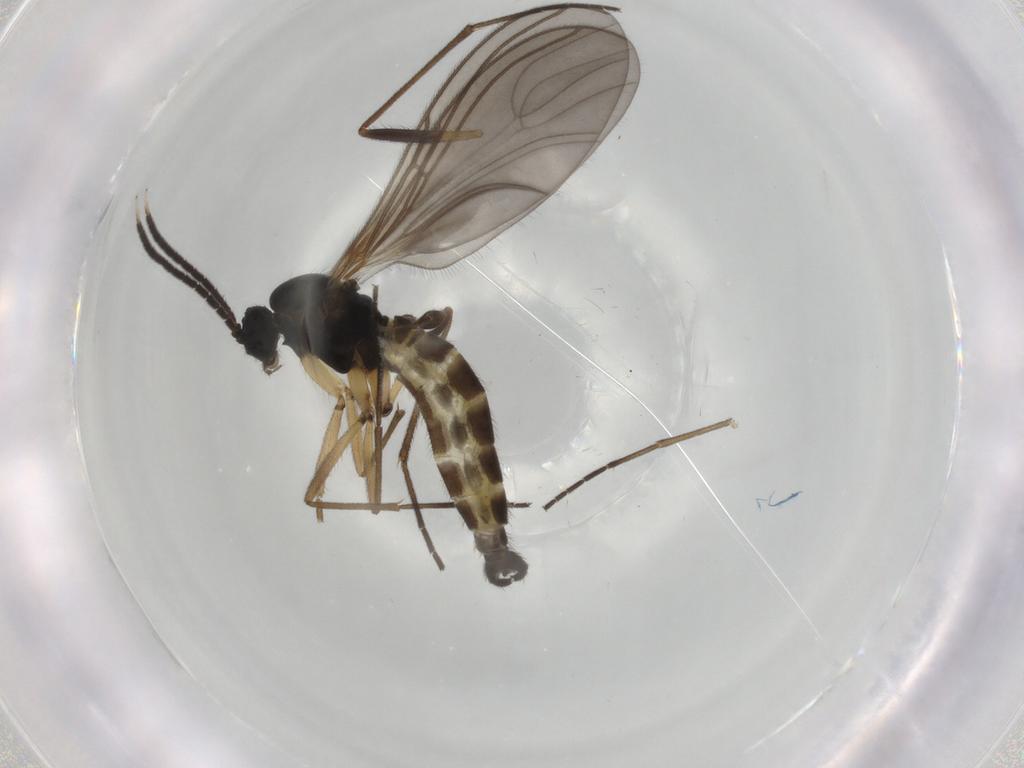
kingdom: Animalia
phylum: Arthropoda
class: Insecta
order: Diptera
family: Sciaridae
